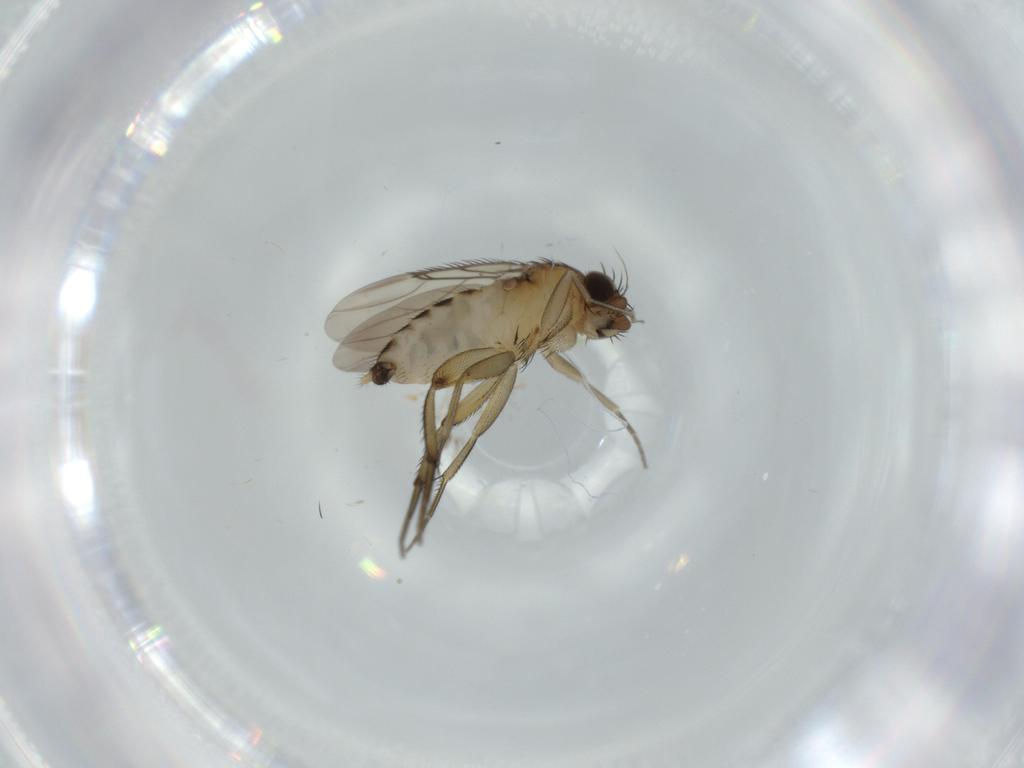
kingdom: Animalia
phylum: Arthropoda
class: Insecta
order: Diptera
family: Phoridae
